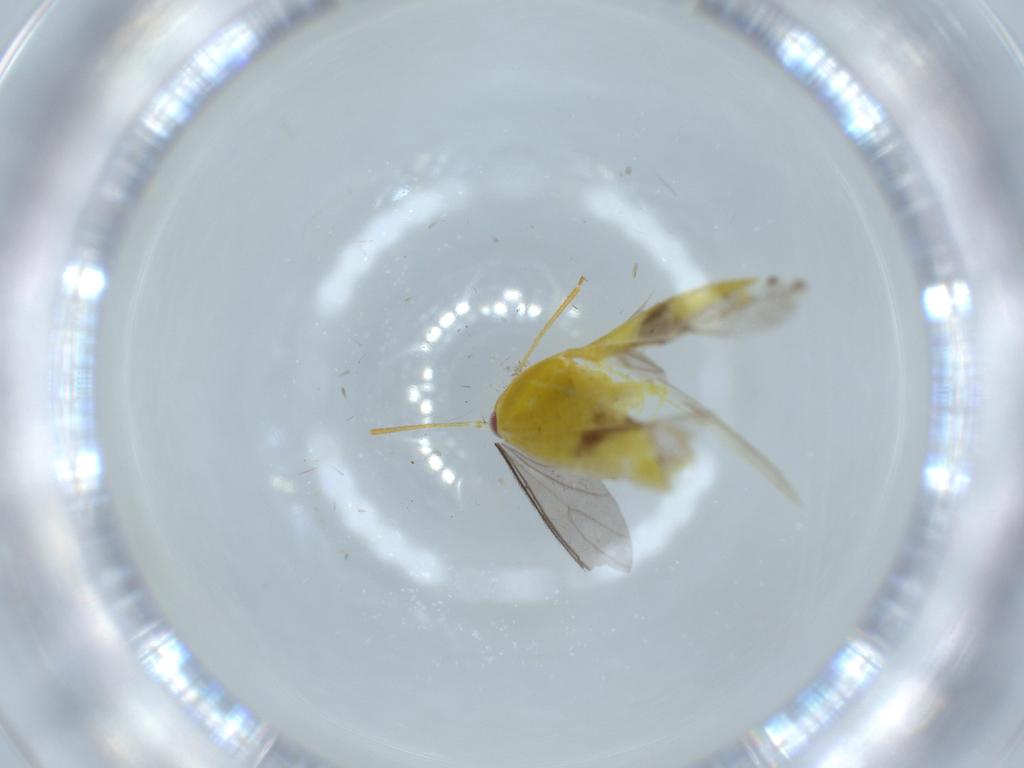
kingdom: Animalia
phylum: Arthropoda
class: Insecta
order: Hemiptera
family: Miridae
